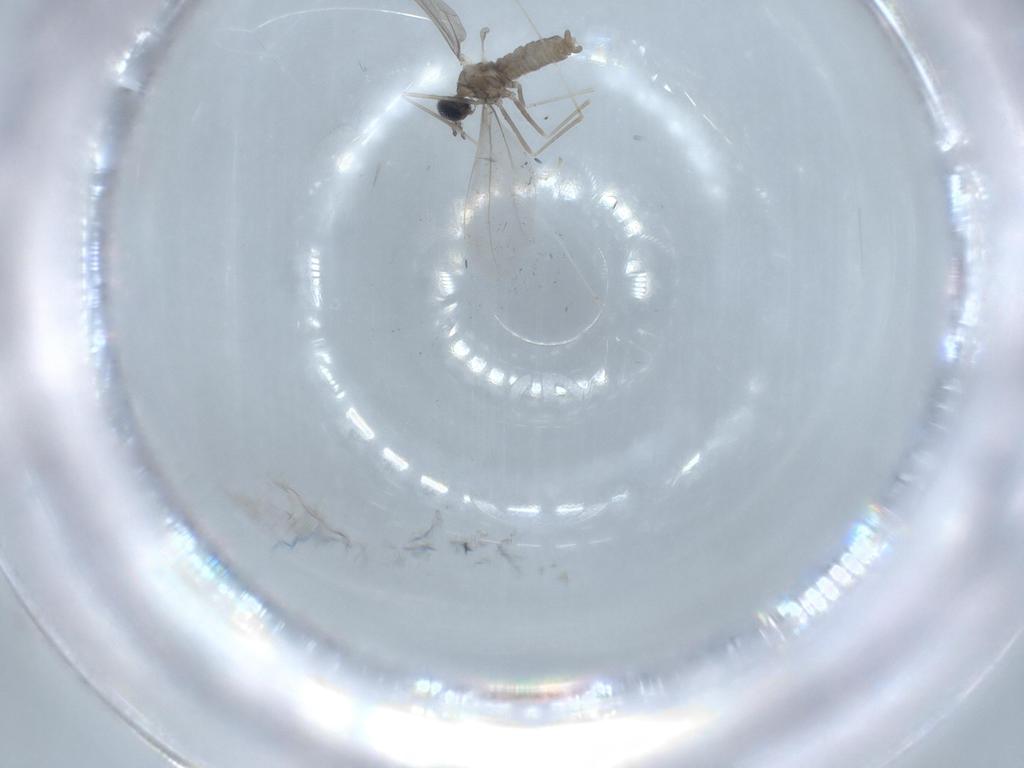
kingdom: Animalia
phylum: Arthropoda
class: Insecta
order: Diptera
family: Cecidomyiidae
